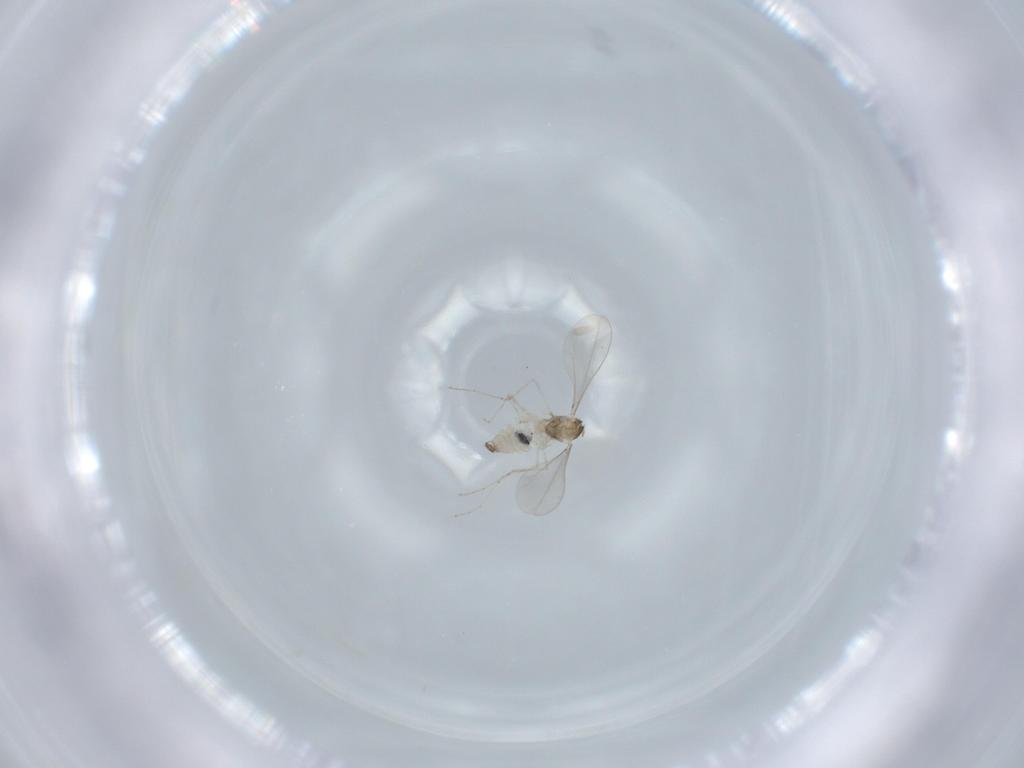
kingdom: Animalia
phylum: Arthropoda
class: Insecta
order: Diptera
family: Cecidomyiidae
